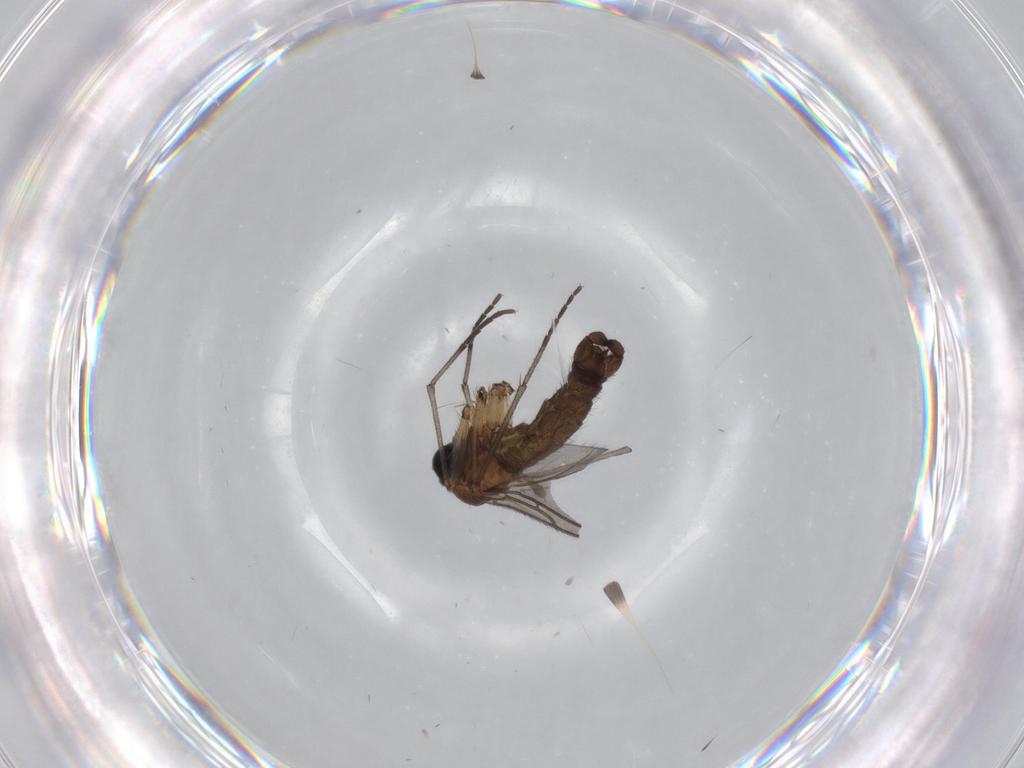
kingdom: Animalia
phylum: Arthropoda
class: Insecta
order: Diptera
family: Sciaridae
